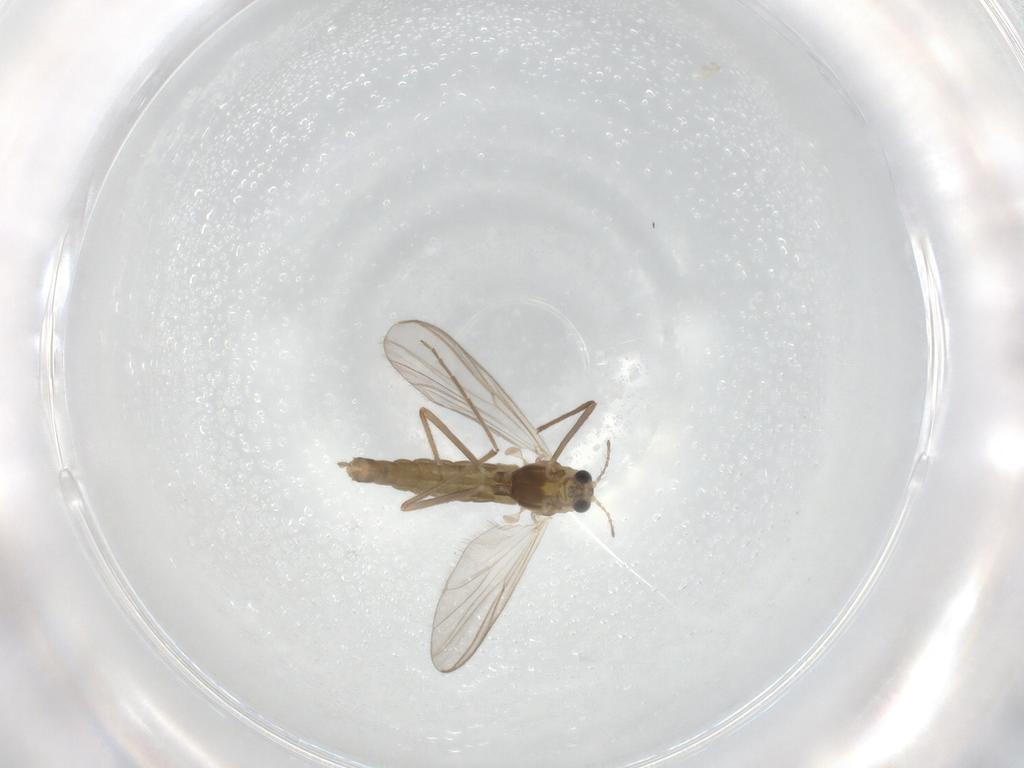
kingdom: Animalia
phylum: Arthropoda
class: Insecta
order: Diptera
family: Chironomidae
